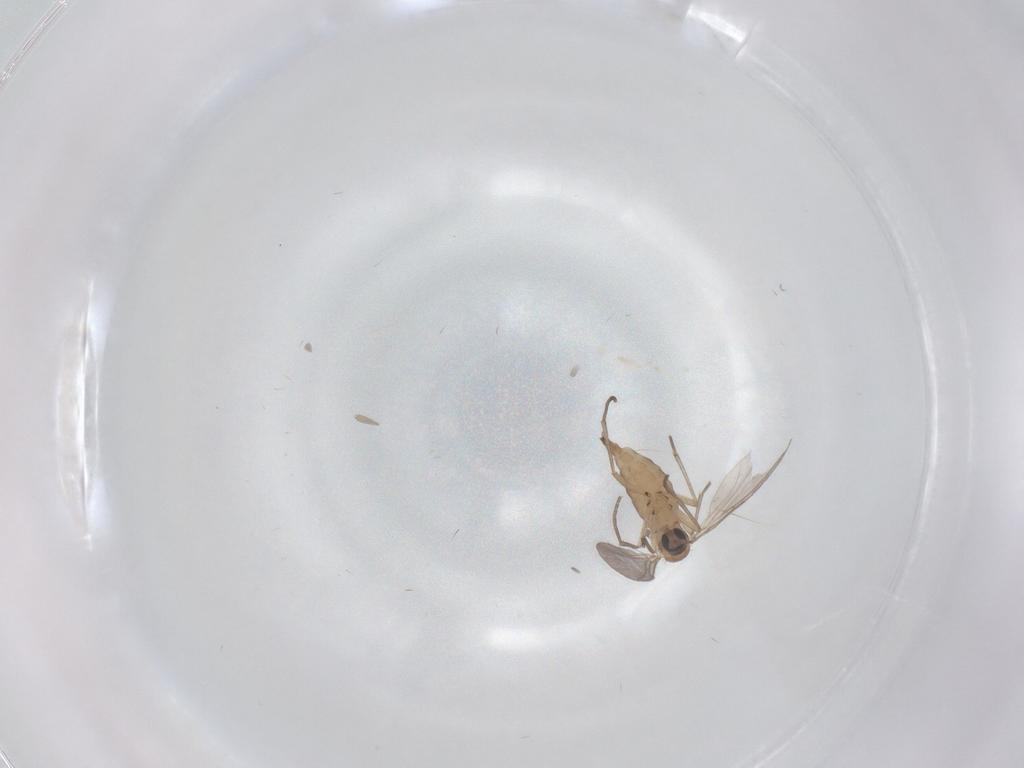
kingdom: Animalia
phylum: Arthropoda
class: Insecta
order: Diptera
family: Sciaridae
